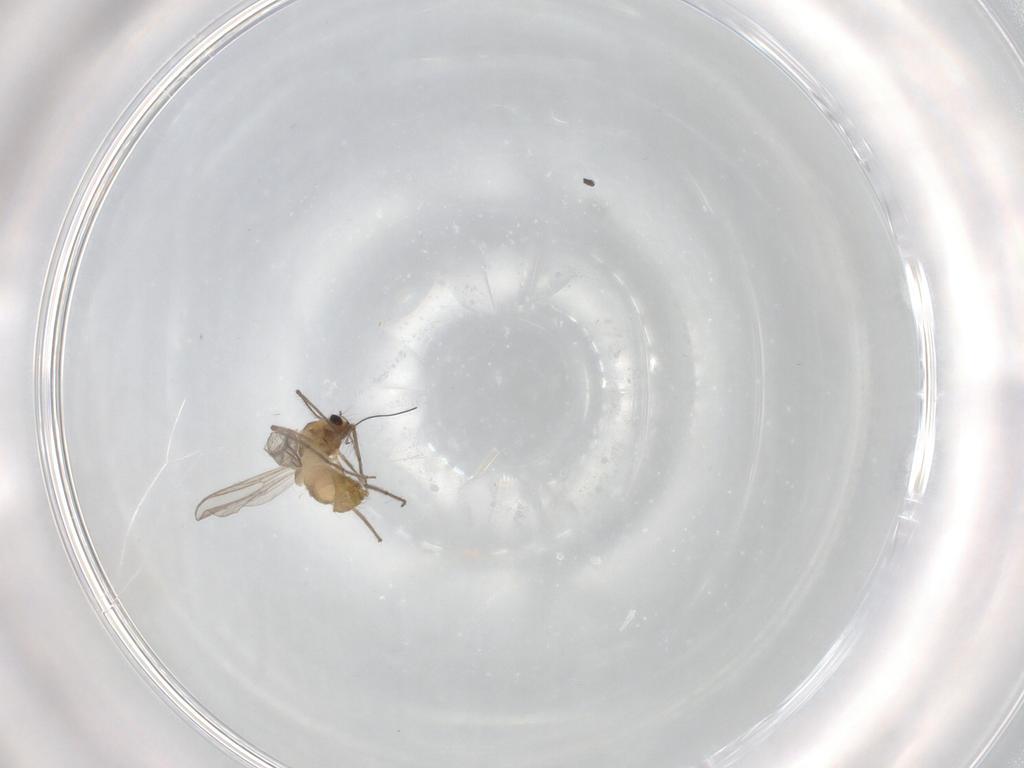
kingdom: Animalia
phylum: Arthropoda
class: Insecta
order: Diptera
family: Chironomidae
